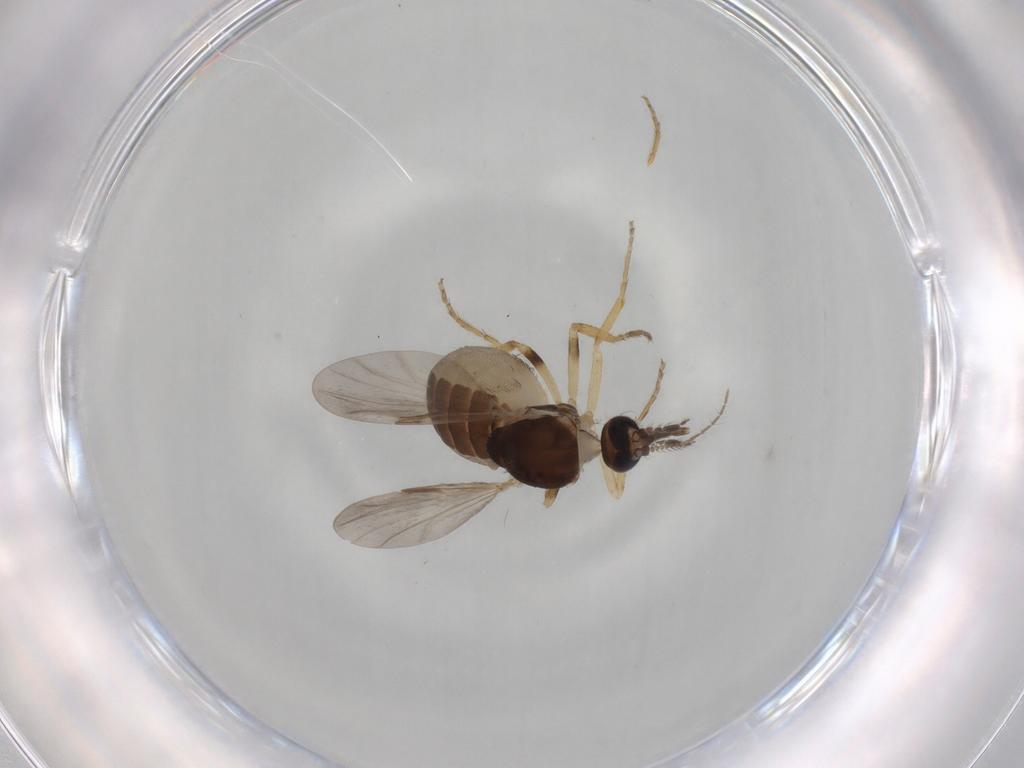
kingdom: Animalia
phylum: Arthropoda
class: Insecta
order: Diptera
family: Ceratopogonidae
